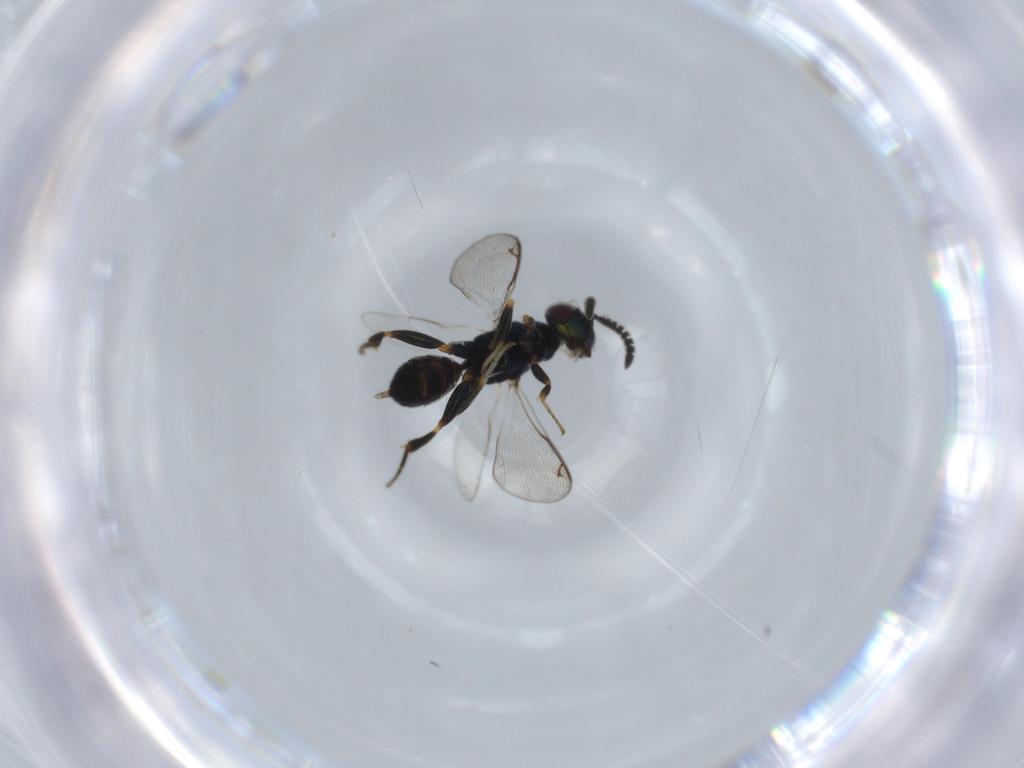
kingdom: Animalia
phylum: Arthropoda
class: Insecta
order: Hymenoptera
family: Cleonyminae
